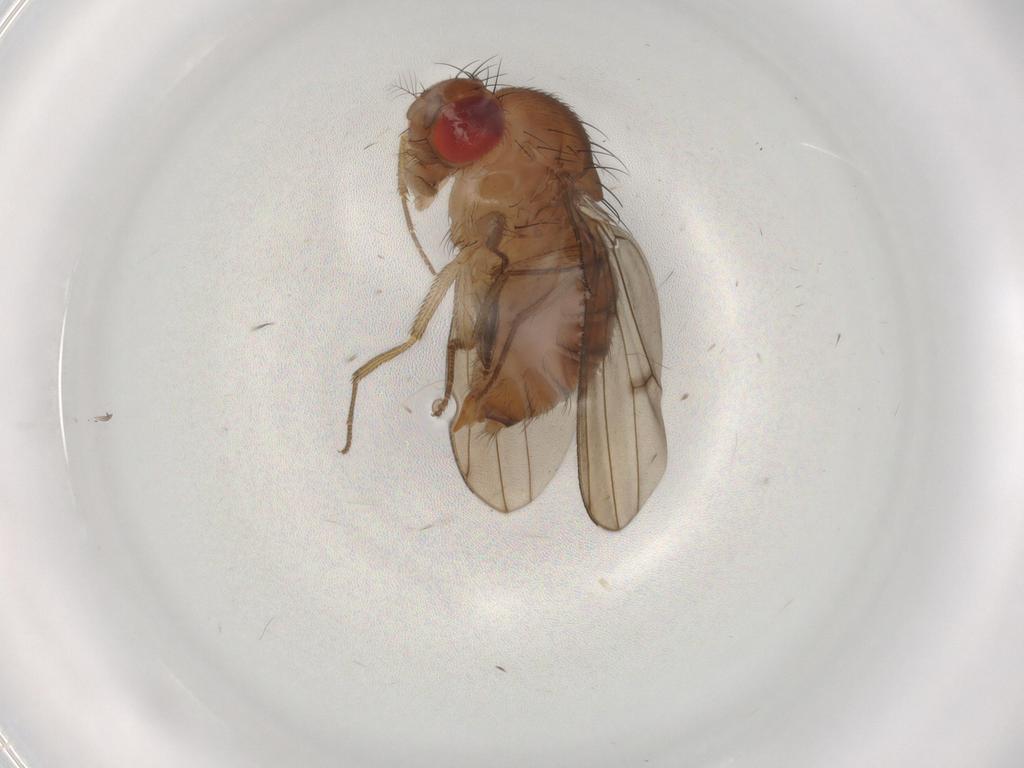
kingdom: Animalia
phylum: Arthropoda
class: Insecta
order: Diptera
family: Drosophilidae
